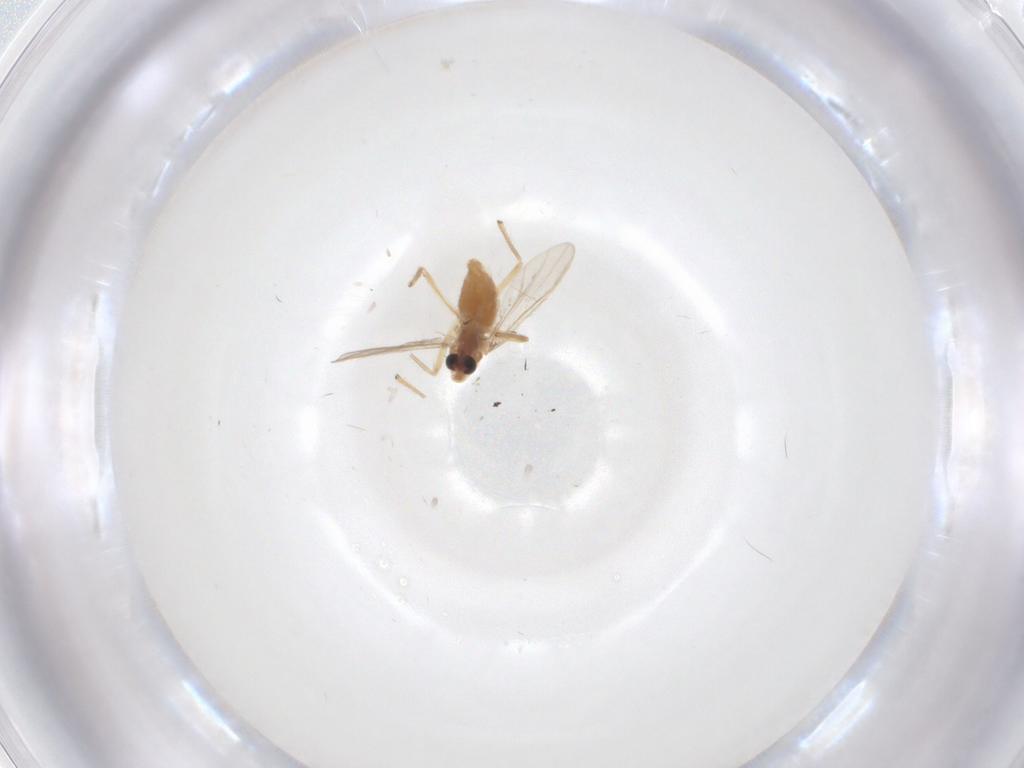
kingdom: Animalia
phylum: Arthropoda
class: Insecta
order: Diptera
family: Chironomidae
